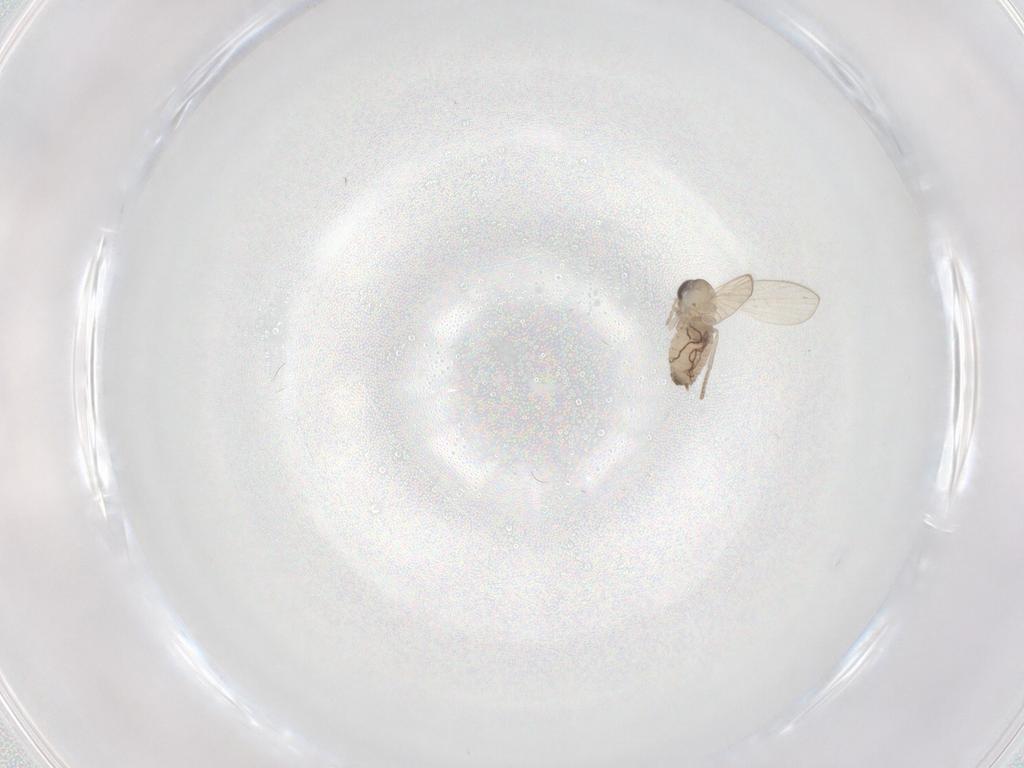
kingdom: Animalia
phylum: Arthropoda
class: Insecta
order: Diptera
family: Psychodidae
